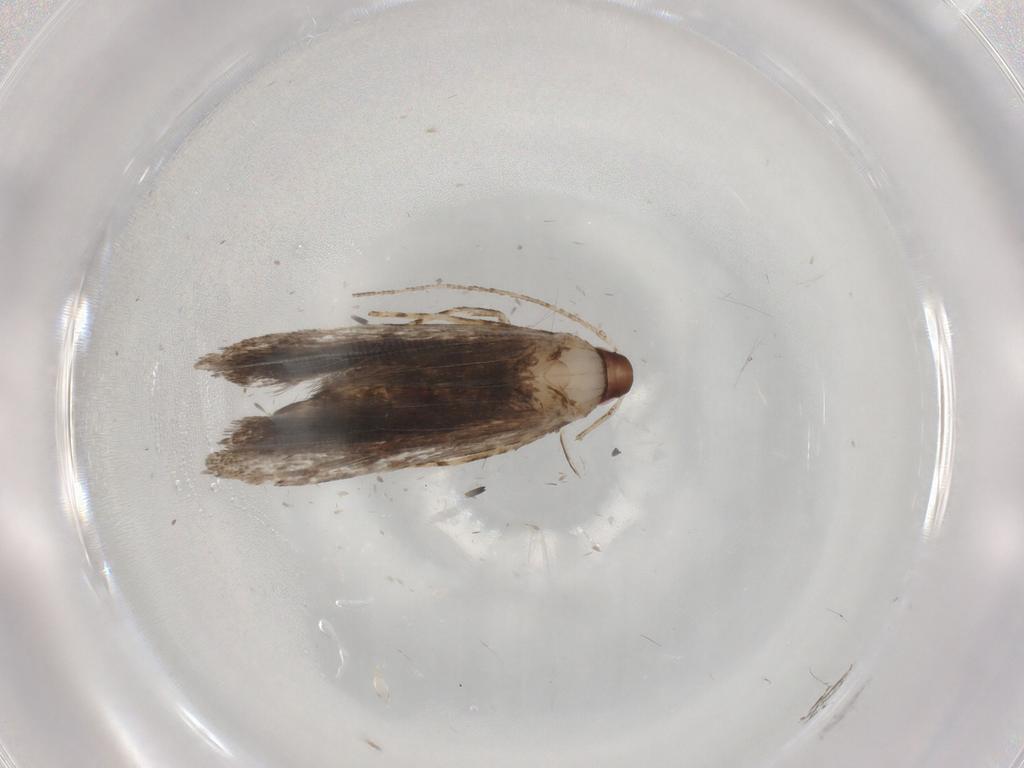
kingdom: Animalia
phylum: Arthropoda
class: Insecta
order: Lepidoptera
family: Gelechiidae
